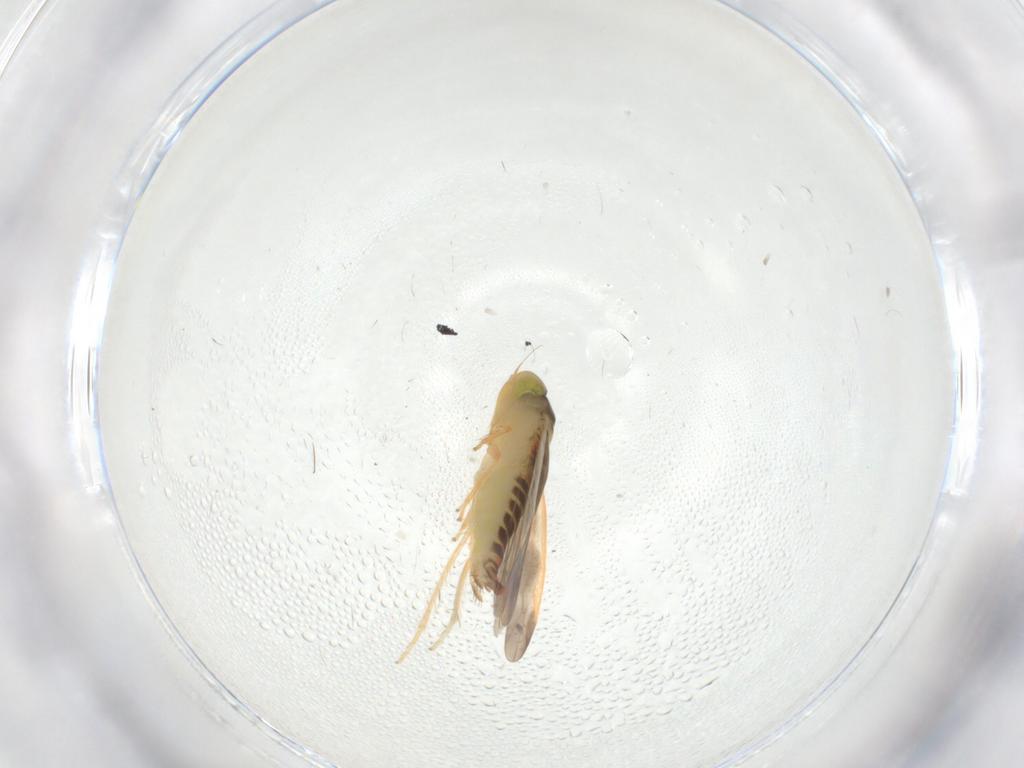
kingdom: Animalia
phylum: Arthropoda
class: Insecta
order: Hemiptera
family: Cicadellidae
